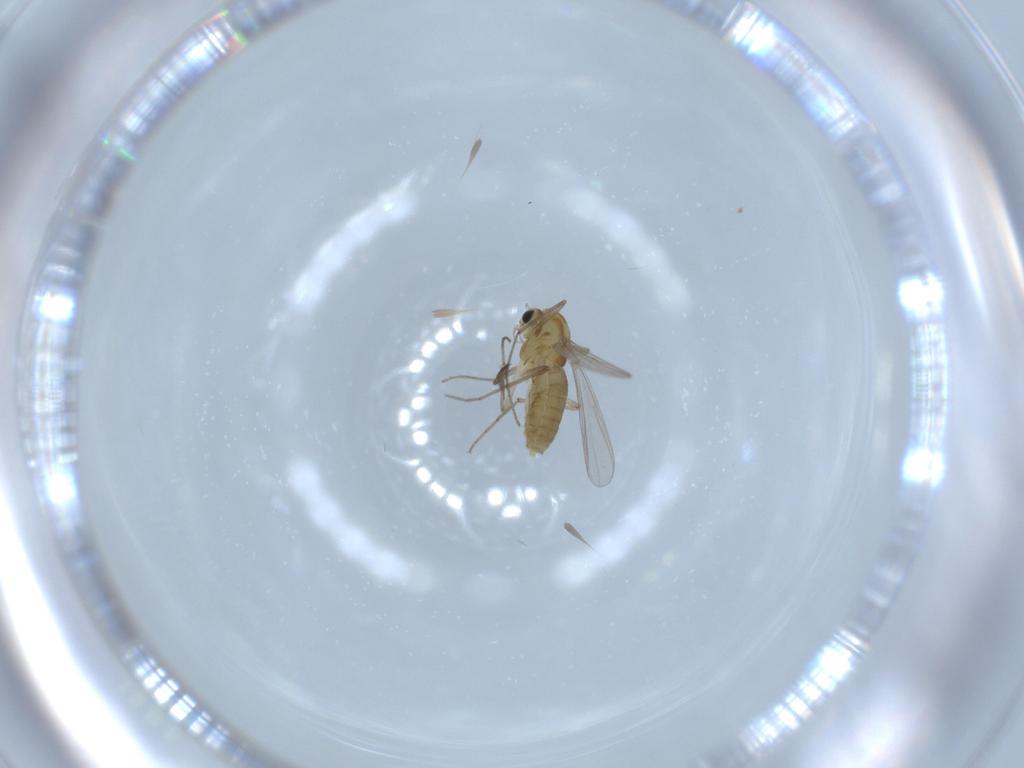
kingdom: Animalia
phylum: Arthropoda
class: Insecta
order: Diptera
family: Chironomidae
